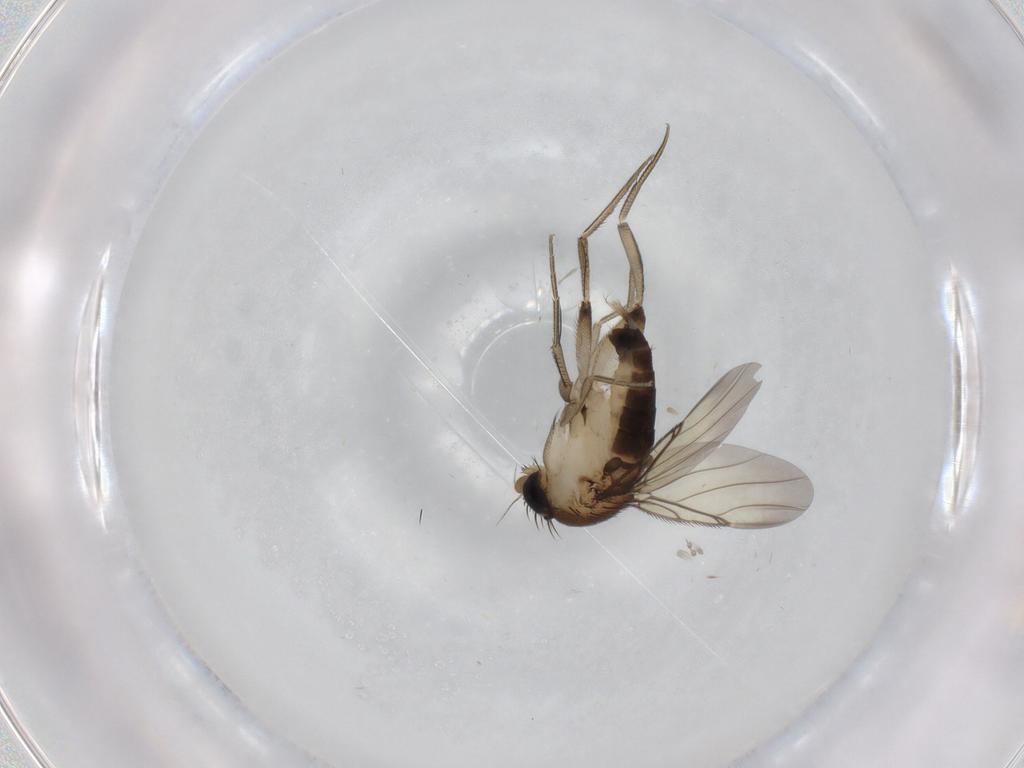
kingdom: Animalia
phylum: Arthropoda
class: Insecta
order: Diptera
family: Phoridae
